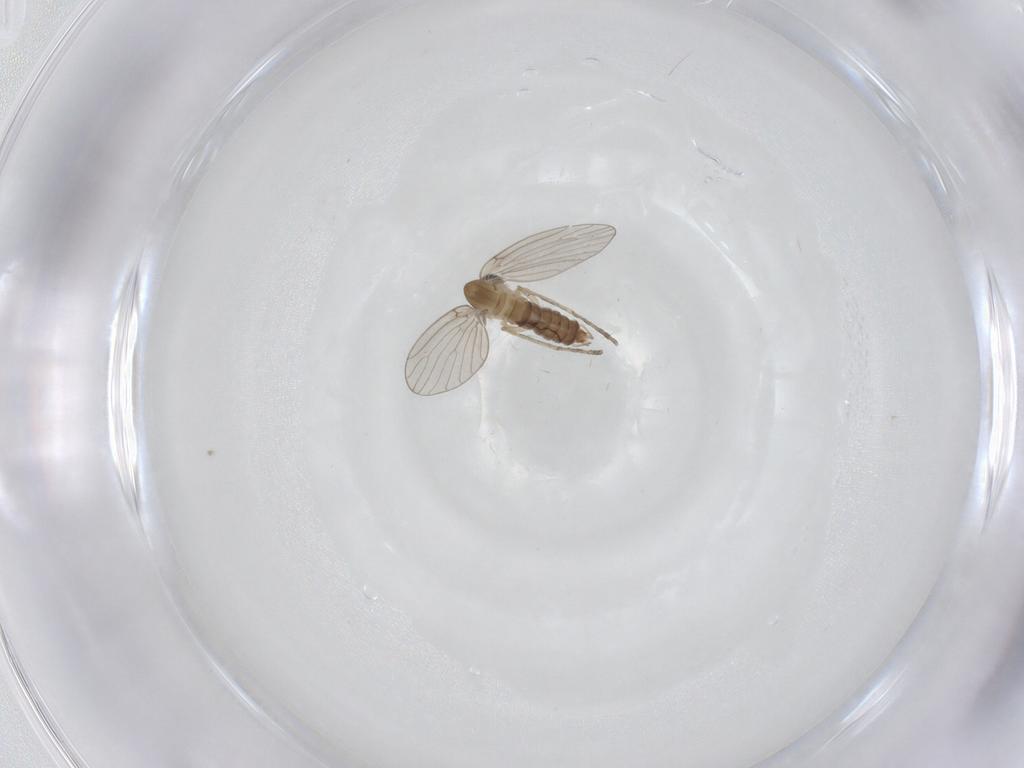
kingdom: Animalia
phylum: Arthropoda
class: Insecta
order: Diptera
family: Psychodidae
